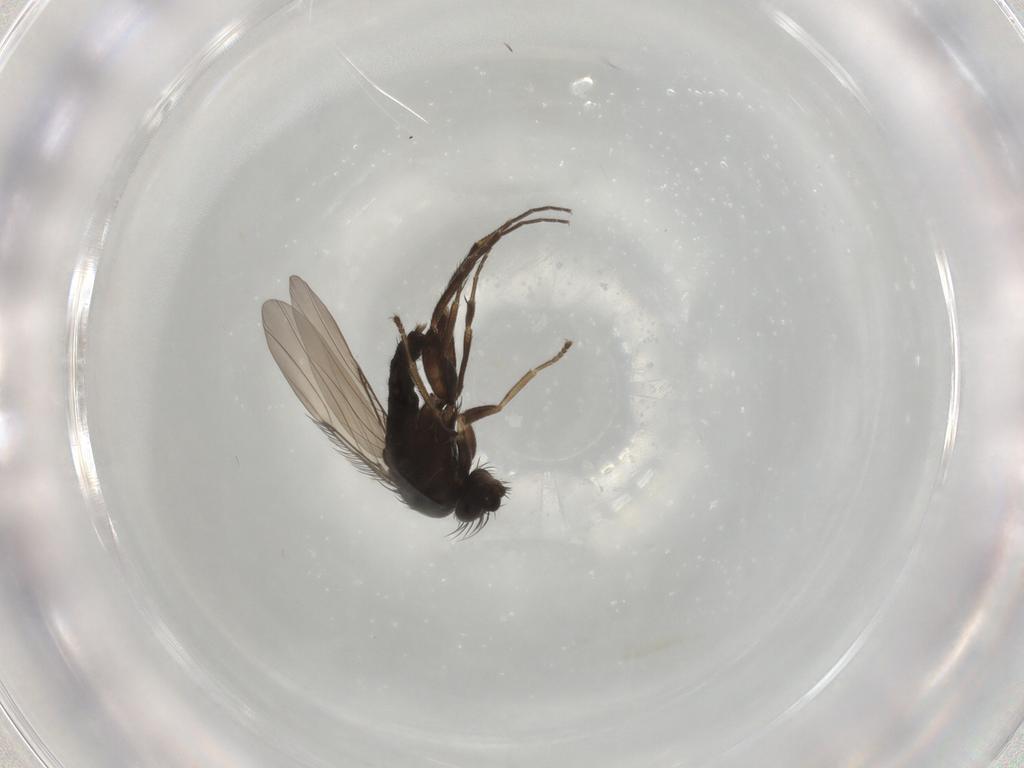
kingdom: Animalia
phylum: Arthropoda
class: Insecta
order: Diptera
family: Phoridae
